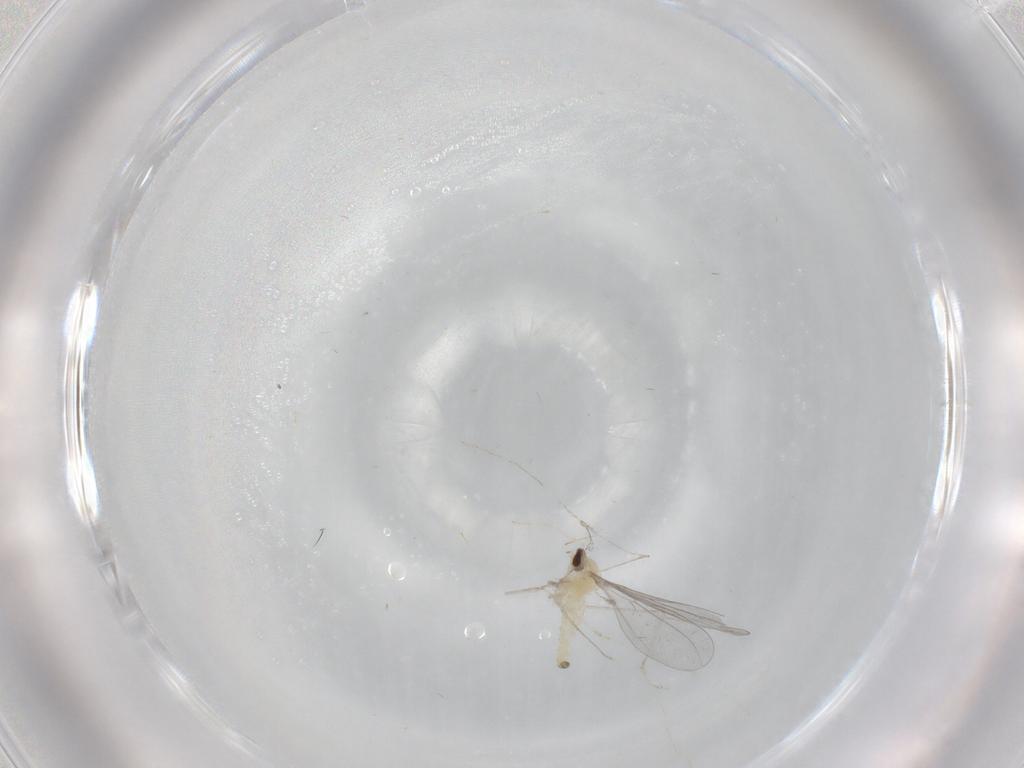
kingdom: Animalia
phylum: Arthropoda
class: Insecta
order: Diptera
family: Cecidomyiidae
